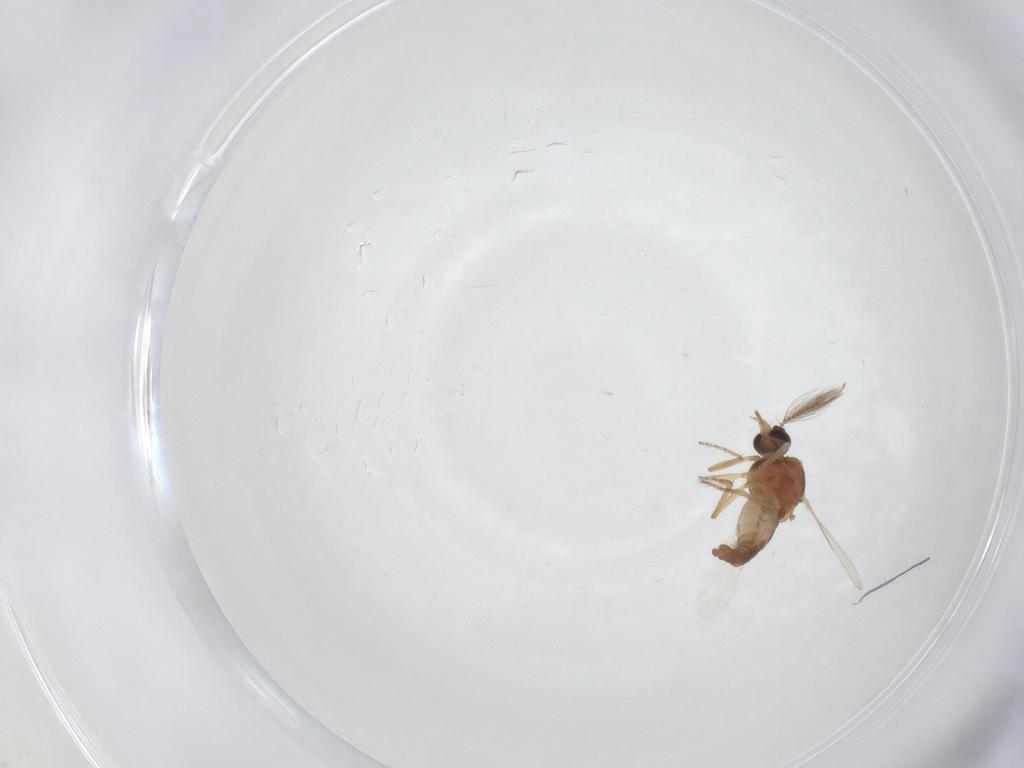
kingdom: Animalia
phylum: Arthropoda
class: Insecta
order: Diptera
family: Ceratopogonidae
